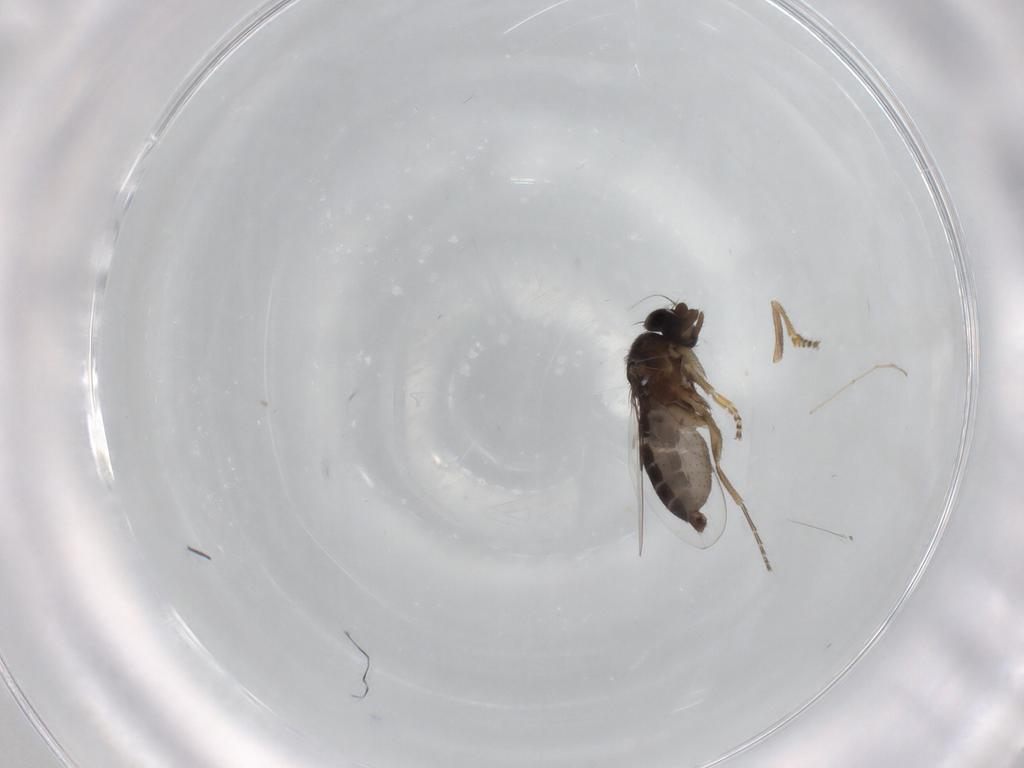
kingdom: Animalia
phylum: Arthropoda
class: Insecta
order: Diptera
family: Phoridae
